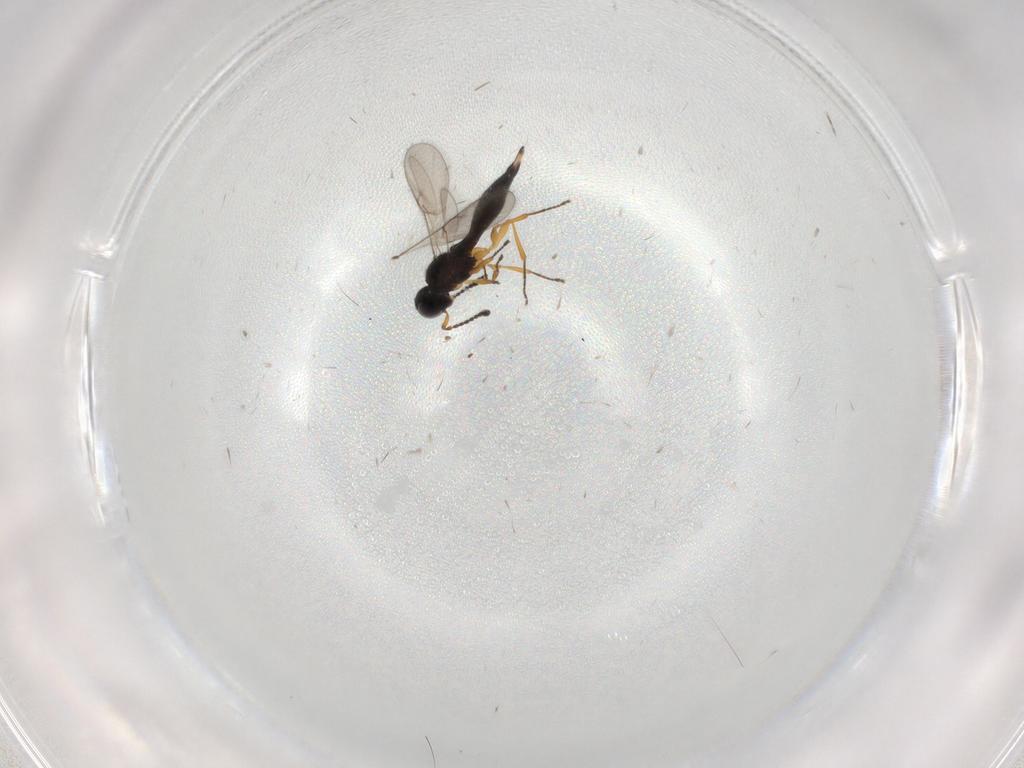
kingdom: Animalia
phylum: Arthropoda
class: Insecta
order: Hymenoptera
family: Scelionidae
